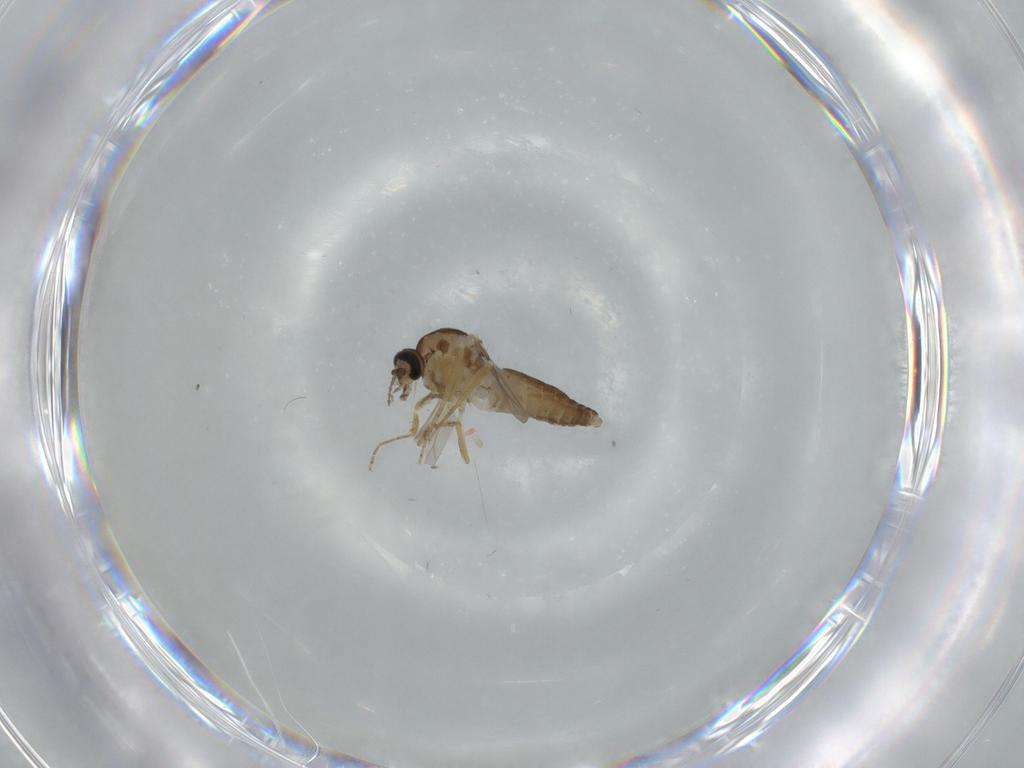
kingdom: Animalia
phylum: Arthropoda
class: Insecta
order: Diptera
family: Ceratopogonidae
